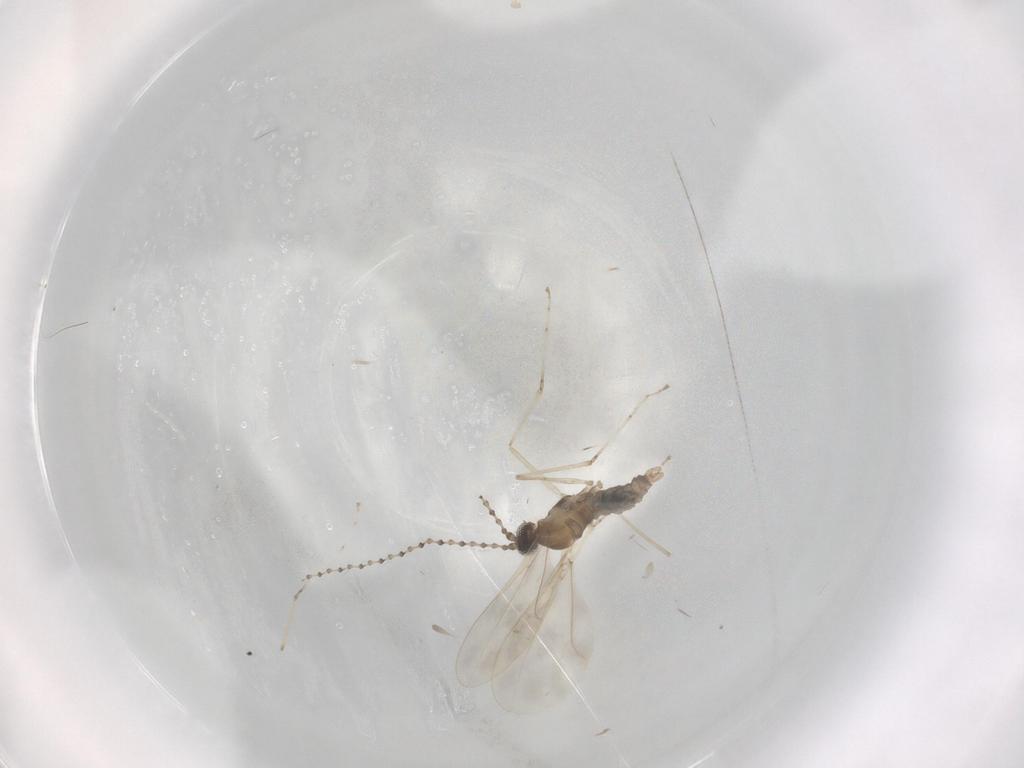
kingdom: Animalia
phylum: Arthropoda
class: Insecta
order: Diptera
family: Cecidomyiidae
